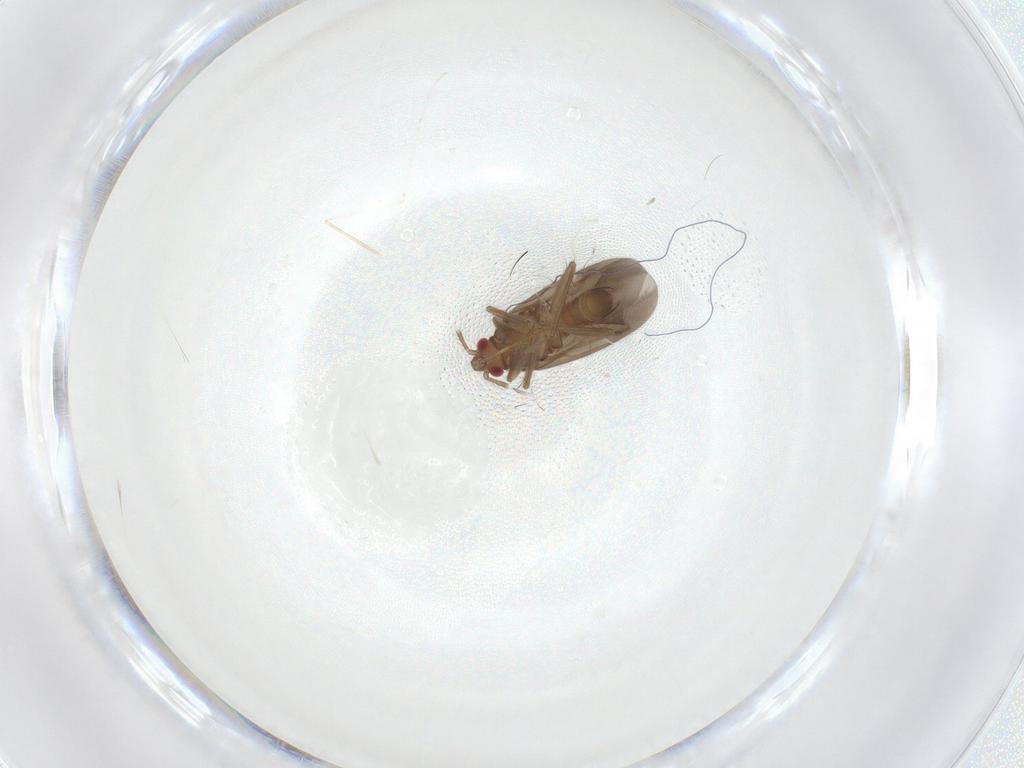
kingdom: Animalia
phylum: Arthropoda
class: Insecta
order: Hemiptera
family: Ceratocombidae
